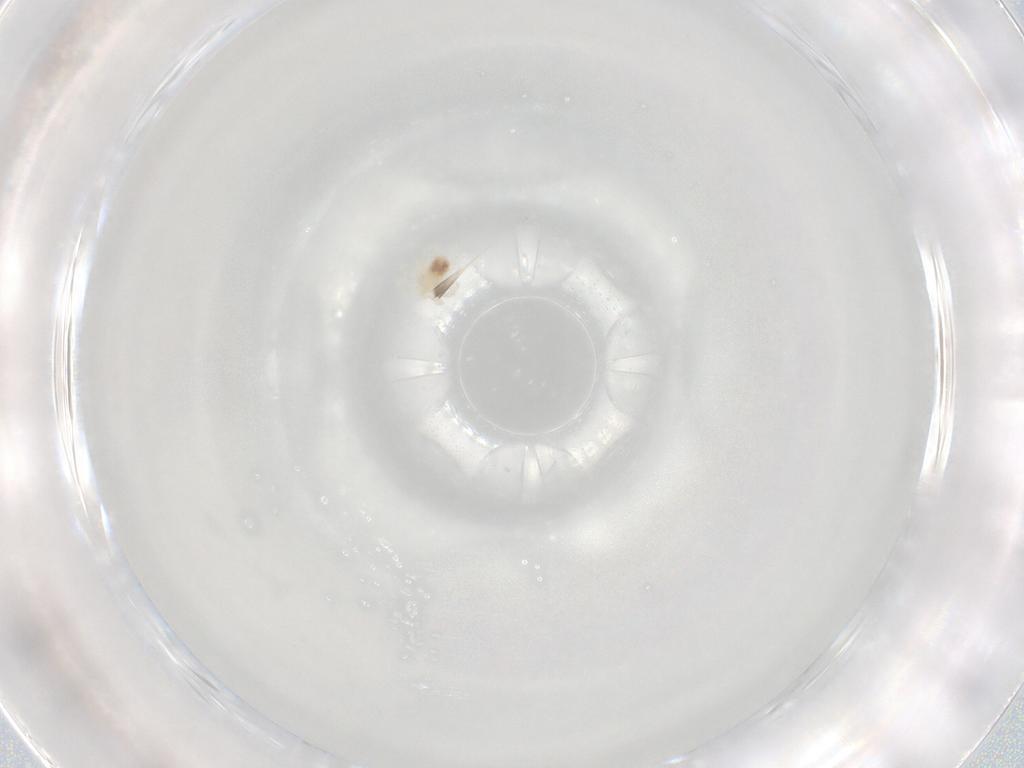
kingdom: Animalia
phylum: Arthropoda
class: Arachnida
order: Trombidiformes
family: Anystidae
